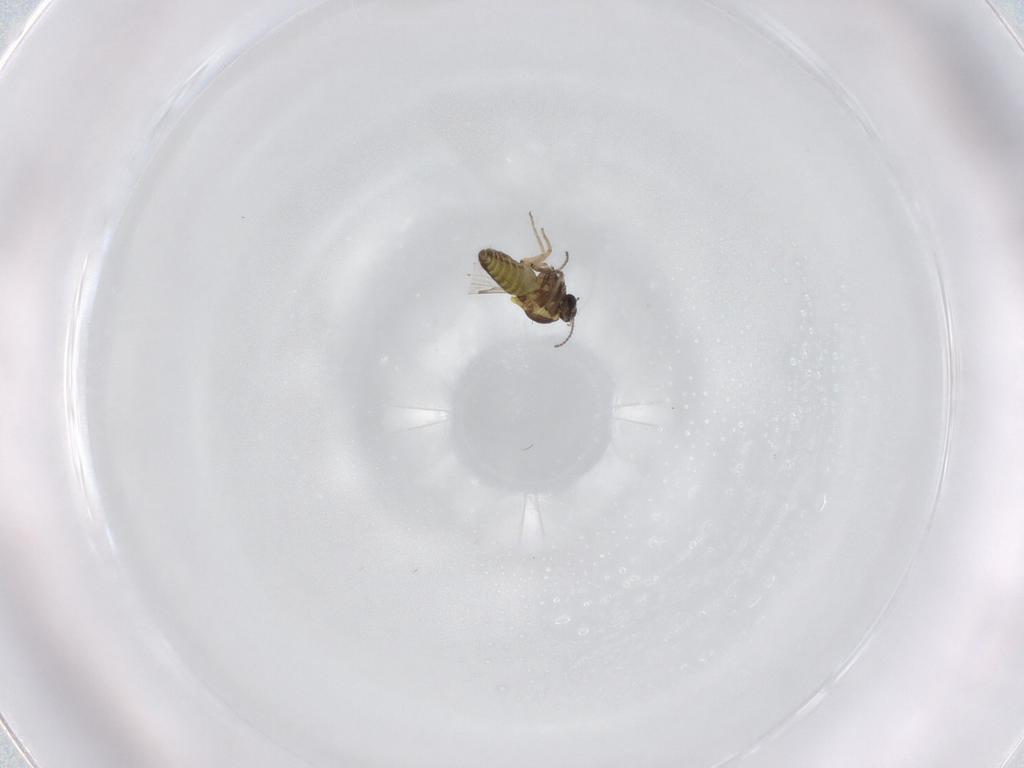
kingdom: Animalia
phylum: Arthropoda
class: Insecta
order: Diptera
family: Ceratopogonidae
